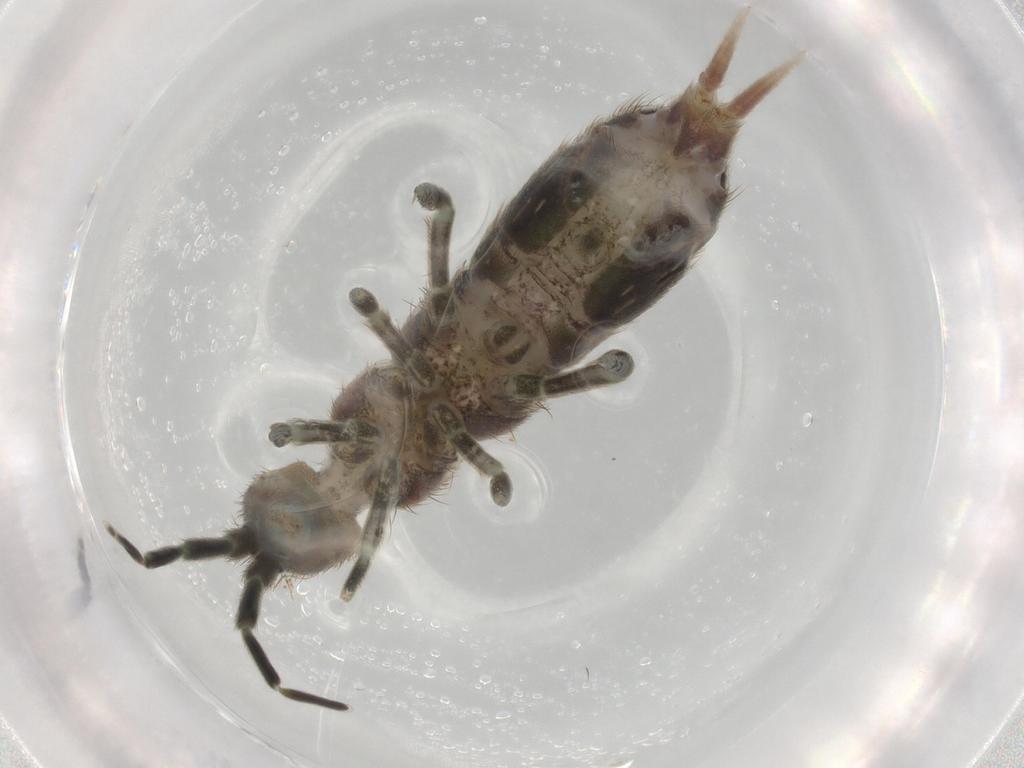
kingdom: Animalia
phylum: Arthropoda
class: Collembola
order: Entomobryomorpha
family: Isotomidae
